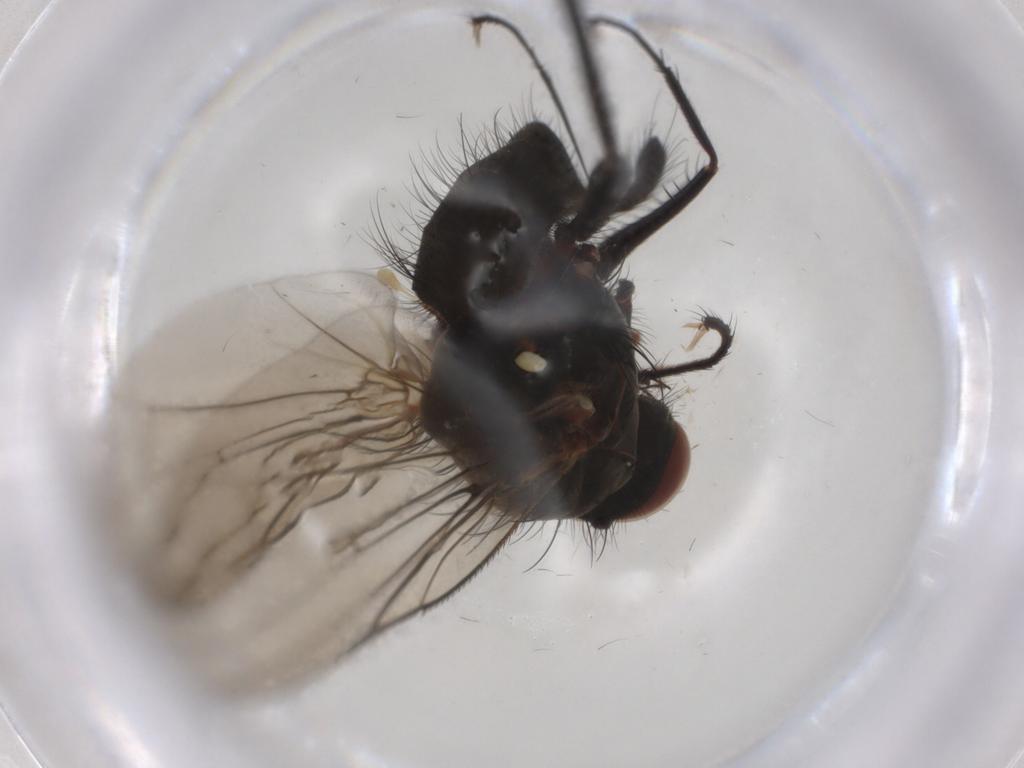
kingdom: Animalia
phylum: Arthropoda
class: Insecta
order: Diptera
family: Anthomyiidae
